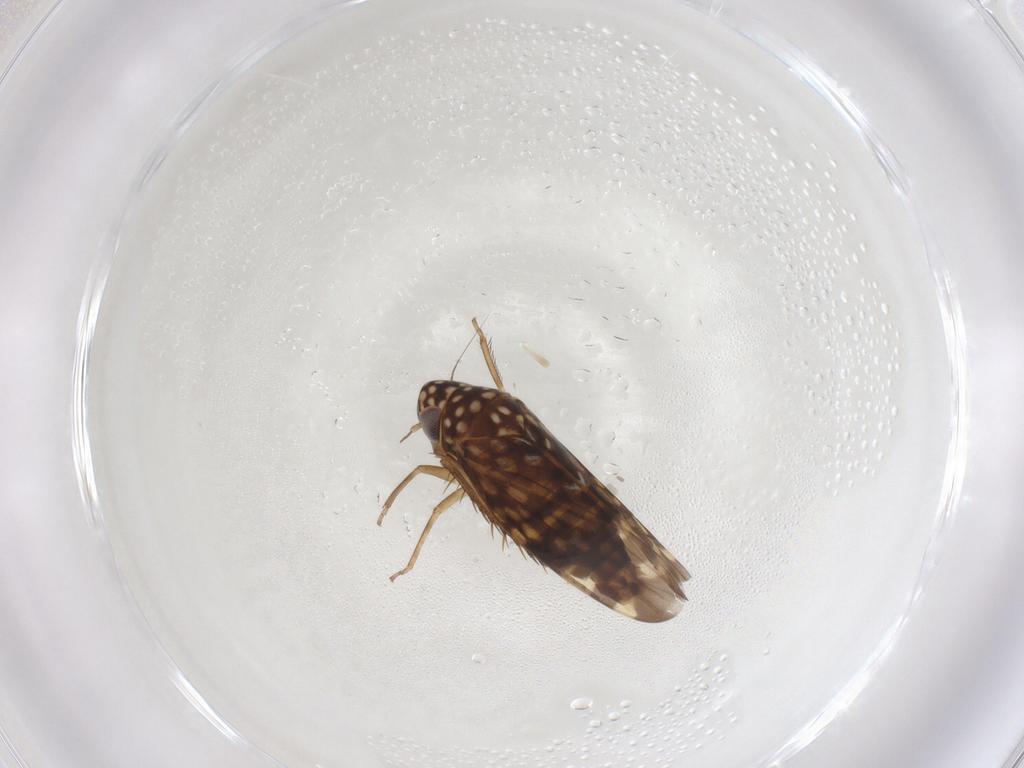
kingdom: Animalia
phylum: Arthropoda
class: Insecta
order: Hemiptera
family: Cicadellidae
